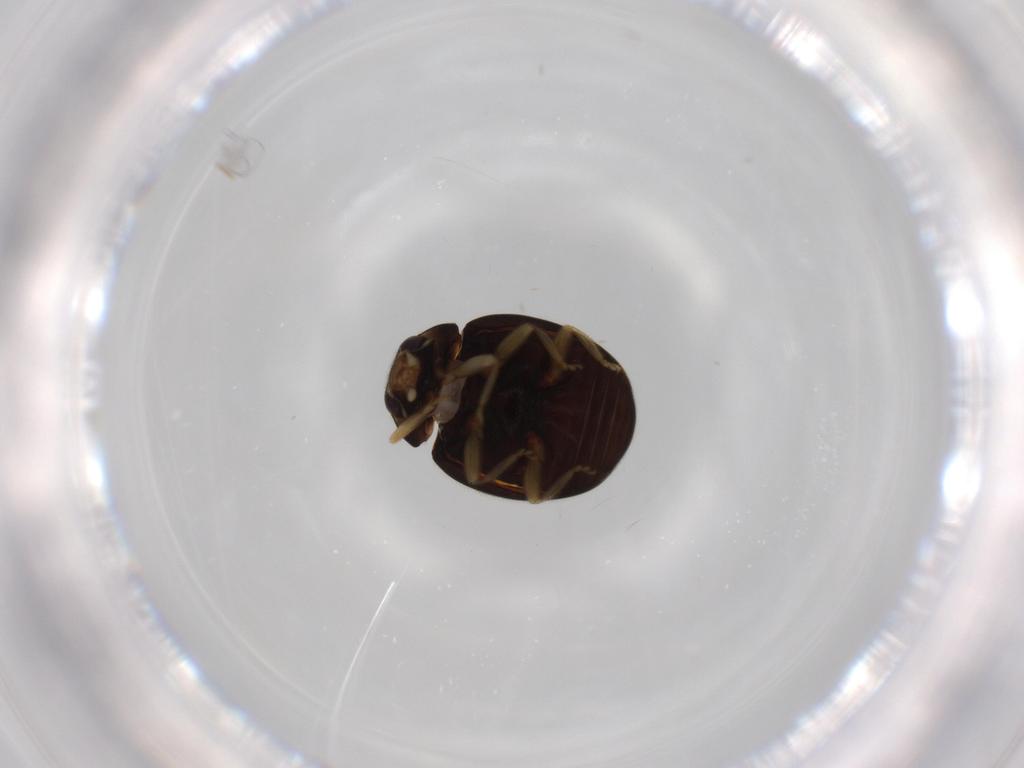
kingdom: Animalia
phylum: Arthropoda
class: Insecta
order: Coleoptera
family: Coccinellidae
